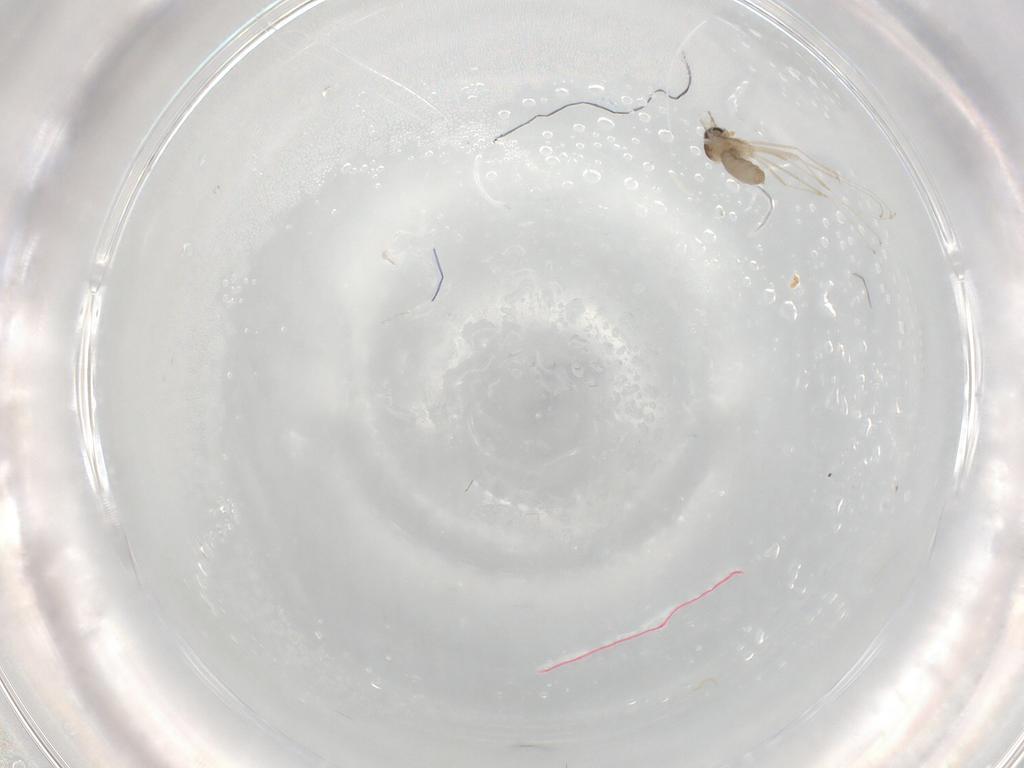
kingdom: Animalia
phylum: Arthropoda
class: Insecta
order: Diptera
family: Cecidomyiidae
